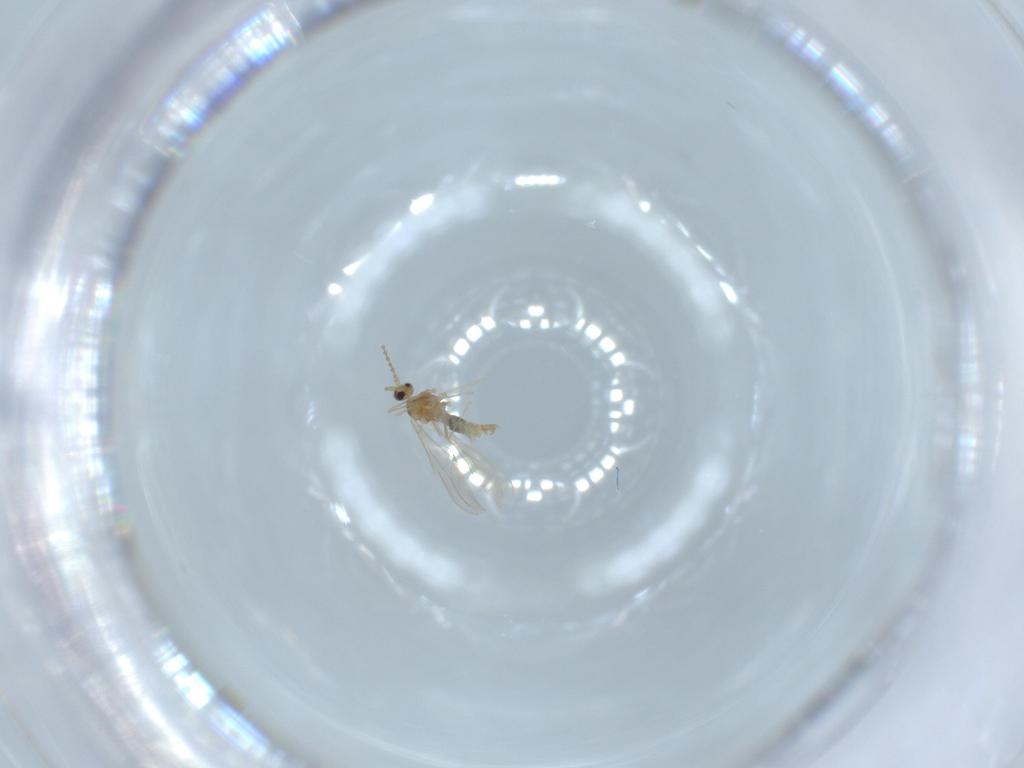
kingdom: Animalia
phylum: Arthropoda
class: Insecta
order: Diptera
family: Cecidomyiidae
